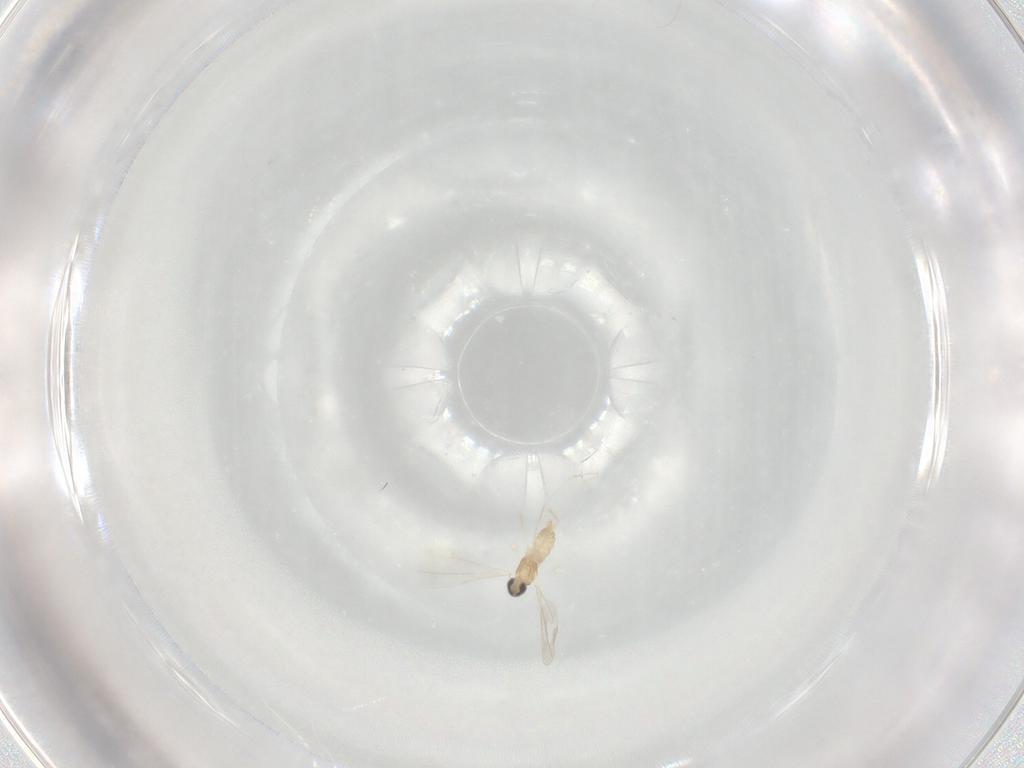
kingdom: Animalia
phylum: Arthropoda
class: Insecta
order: Diptera
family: Cecidomyiidae
